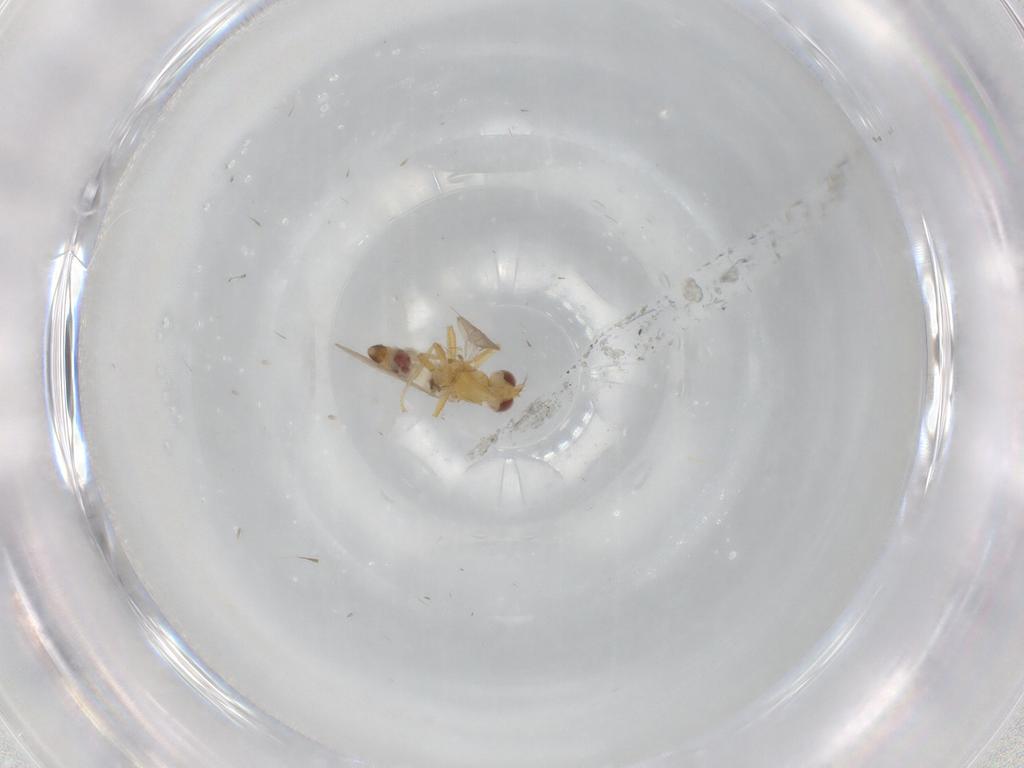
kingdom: Animalia
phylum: Arthropoda
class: Insecta
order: Diptera
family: Periscelididae
